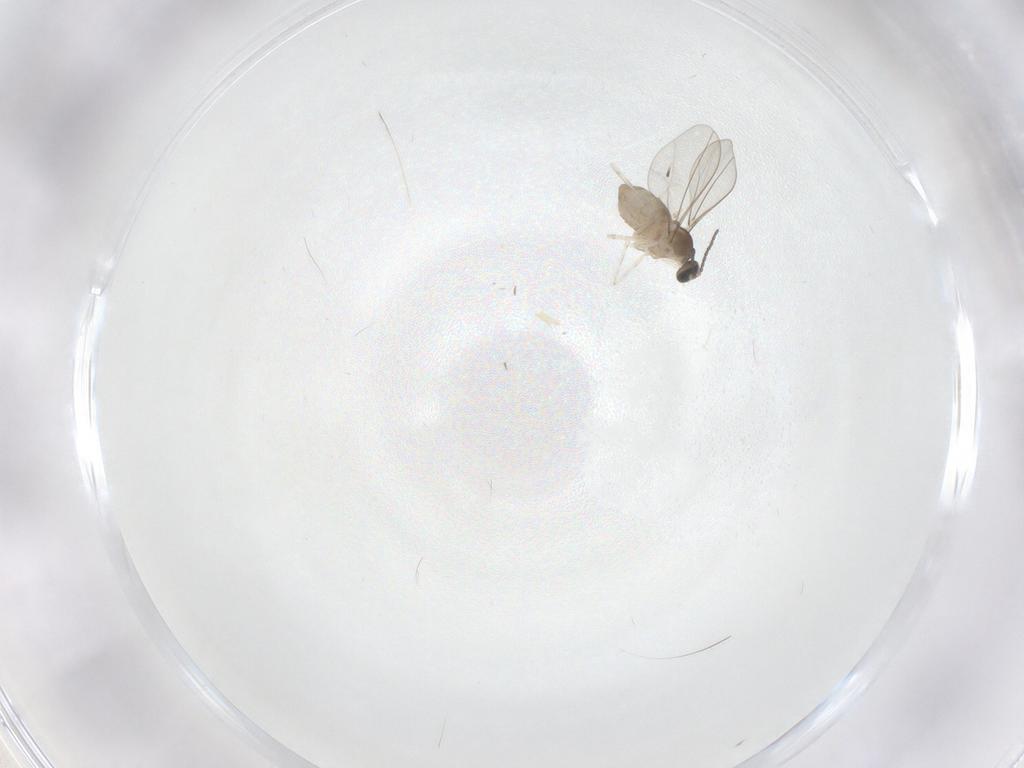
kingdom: Animalia
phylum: Arthropoda
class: Insecta
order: Diptera
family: Cecidomyiidae
